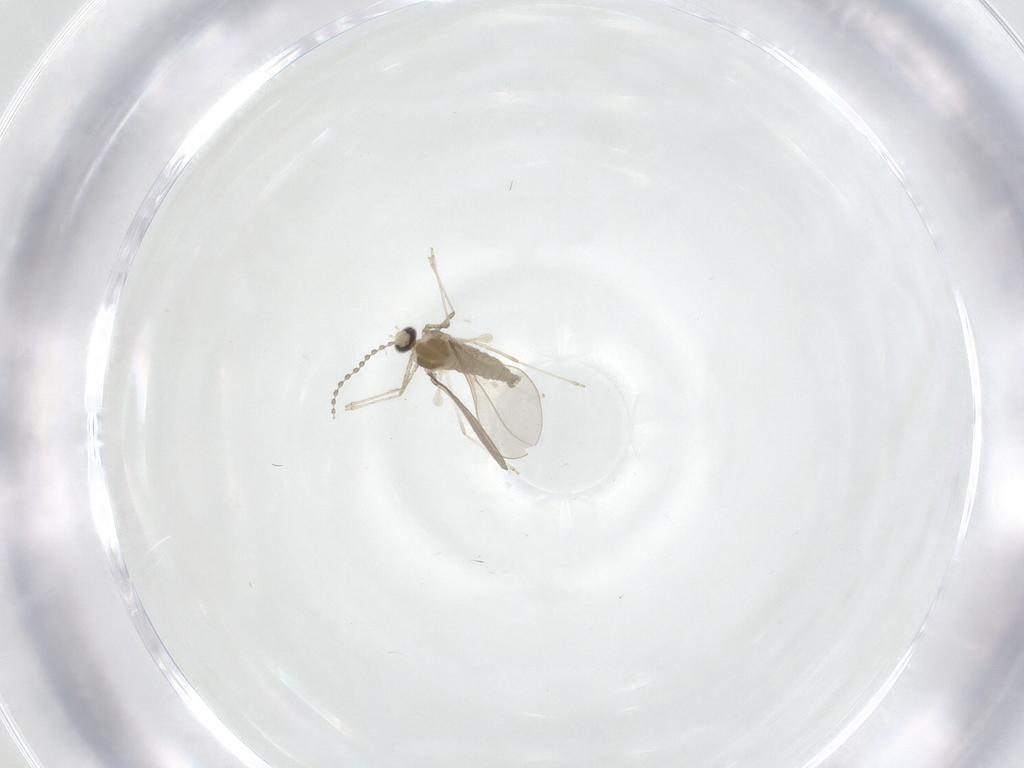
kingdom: Animalia
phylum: Arthropoda
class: Insecta
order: Diptera
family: Cecidomyiidae
